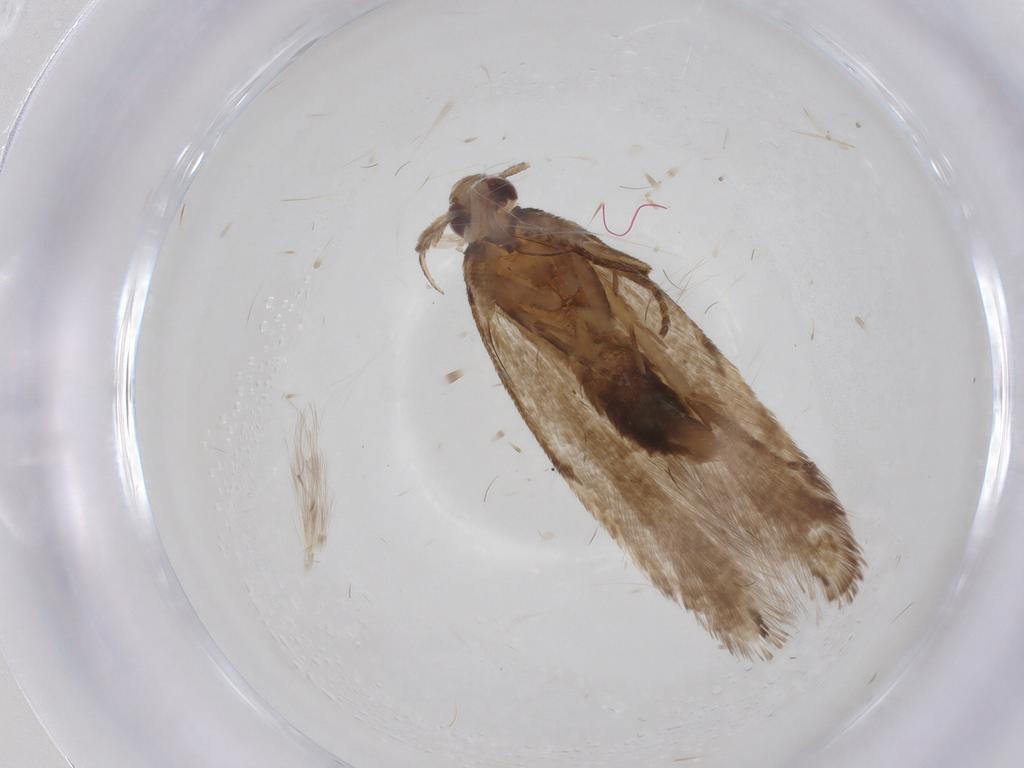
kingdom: Animalia
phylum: Arthropoda
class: Insecta
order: Lepidoptera
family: Gelechiidae
